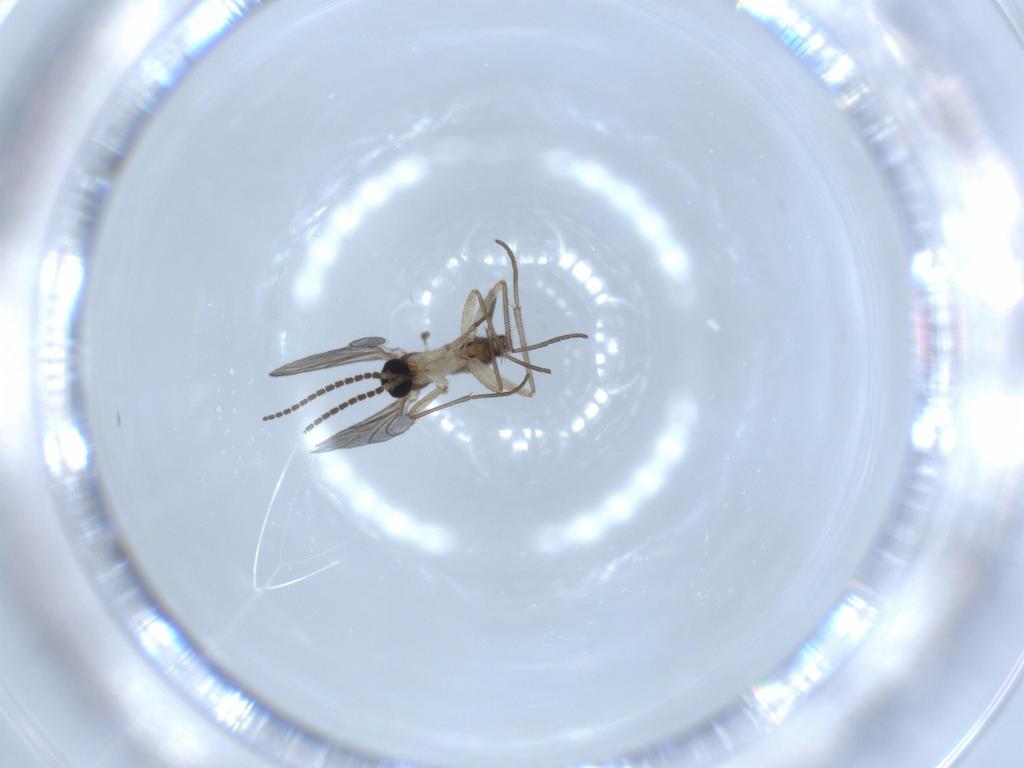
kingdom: Animalia
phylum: Arthropoda
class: Insecta
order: Diptera
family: Sciaridae
